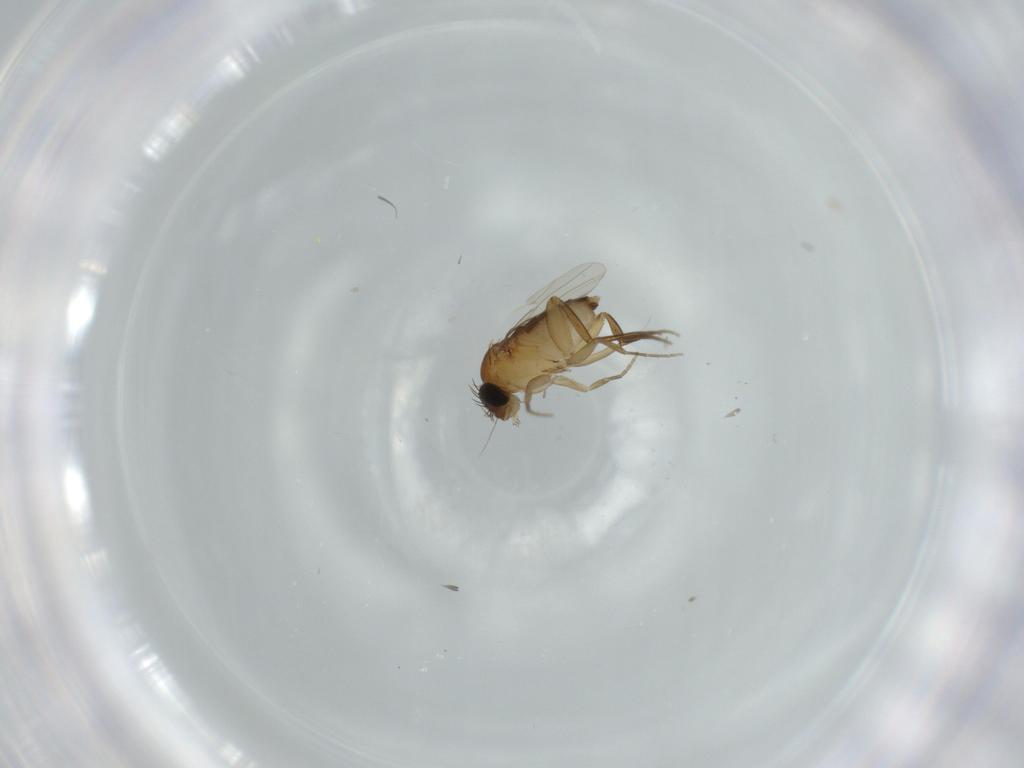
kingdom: Animalia
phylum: Arthropoda
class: Insecta
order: Diptera
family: Phoridae
